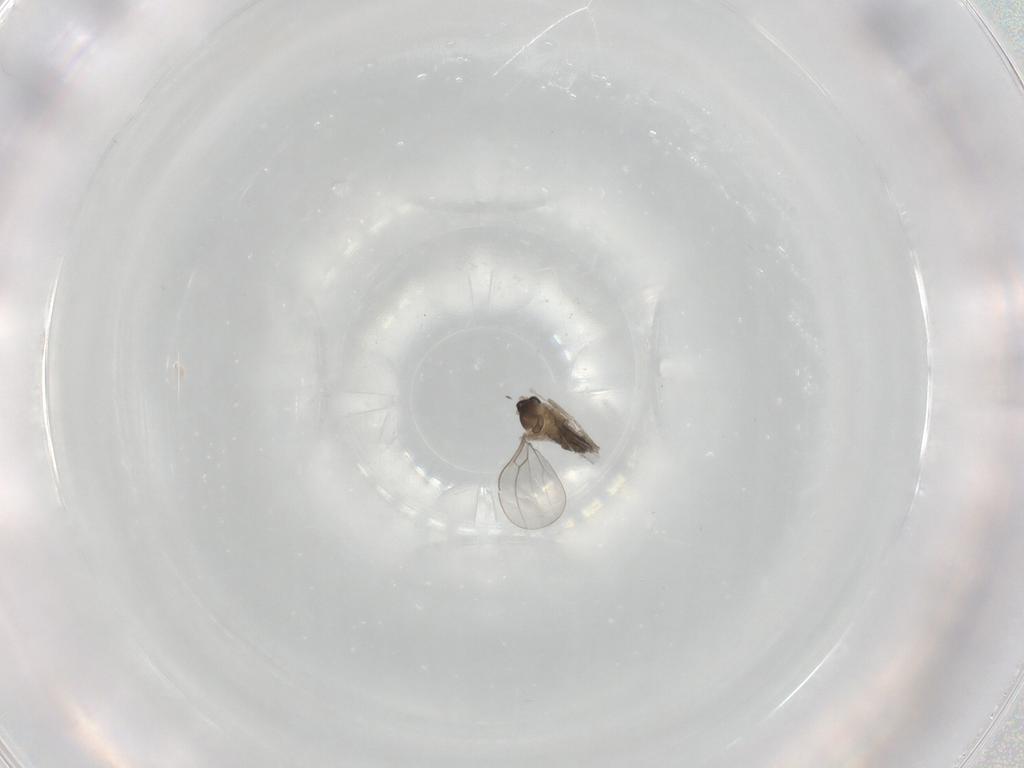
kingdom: Animalia
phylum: Arthropoda
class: Insecta
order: Diptera
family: Cecidomyiidae
